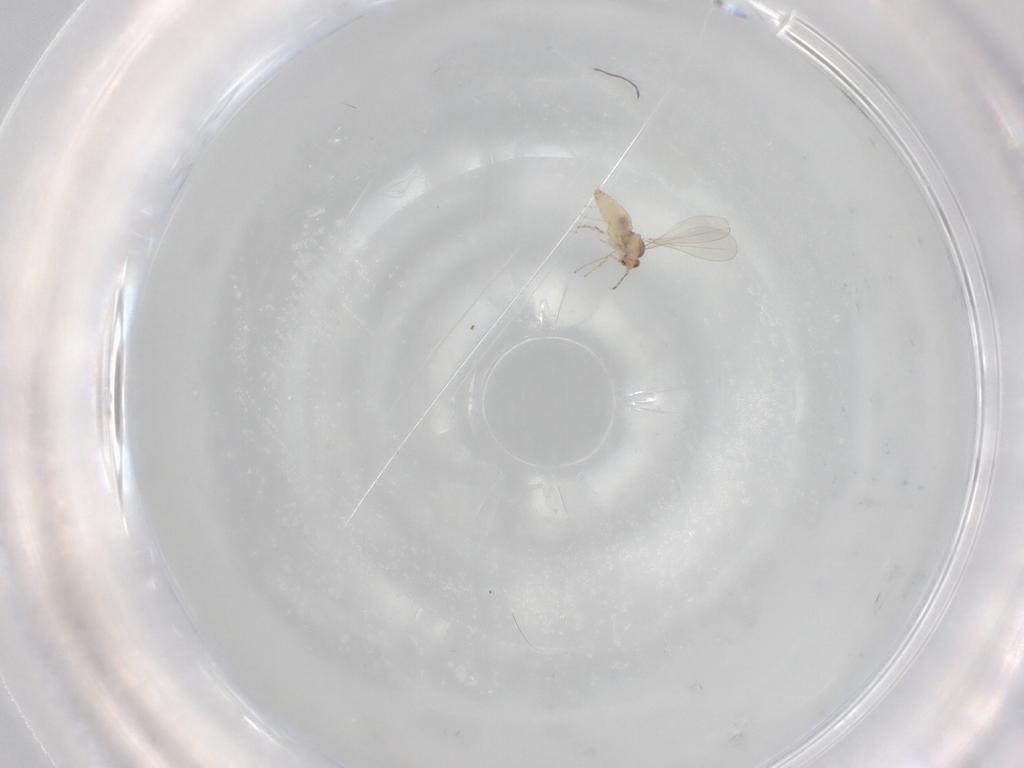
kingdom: Animalia
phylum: Arthropoda
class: Insecta
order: Diptera
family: Cecidomyiidae
